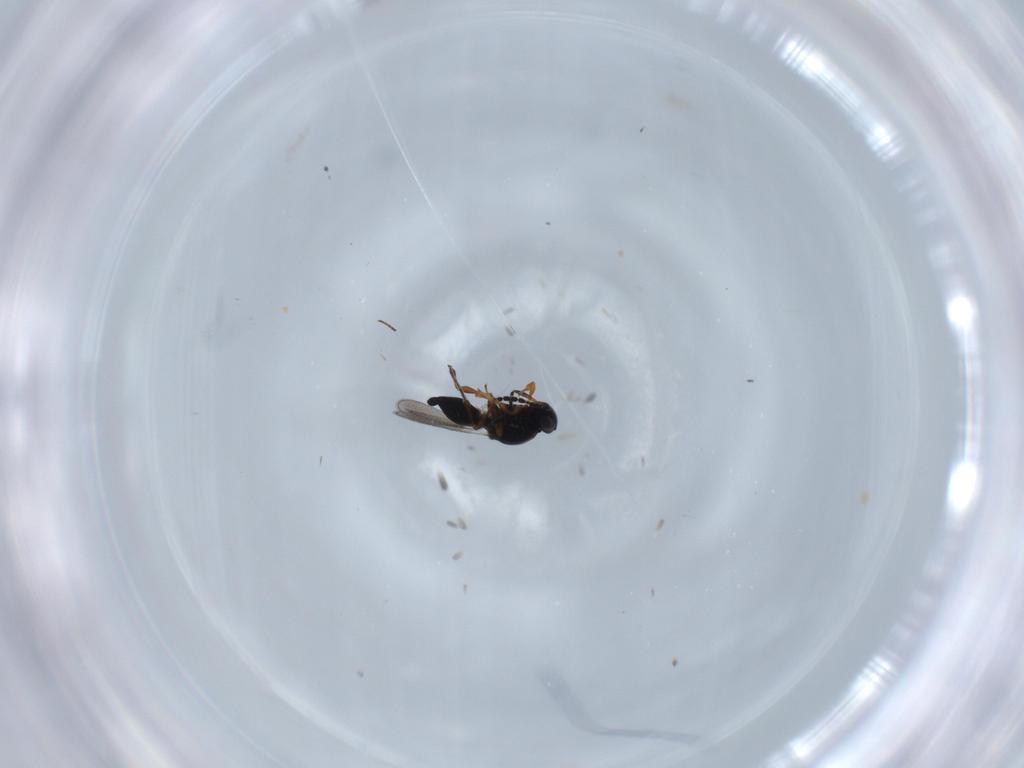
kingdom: Animalia
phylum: Arthropoda
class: Insecta
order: Hymenoptera
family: Platygastridae
